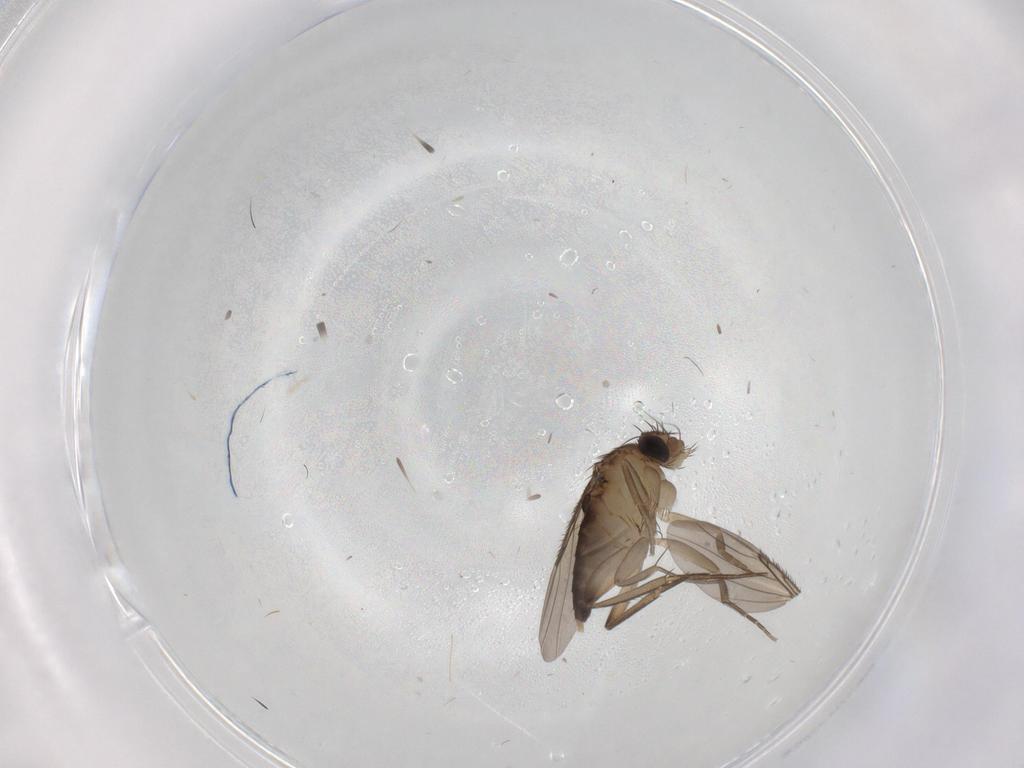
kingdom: Animalia
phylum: Arthropoda
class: Insecta
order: Diptera
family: Phoridae
